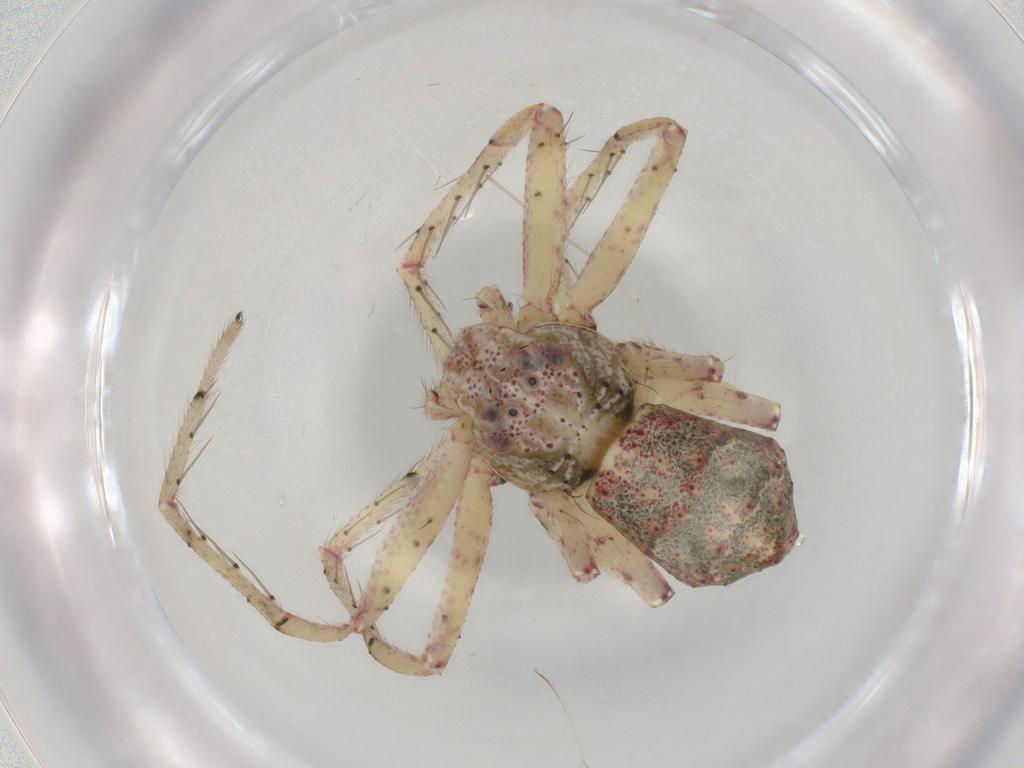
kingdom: Animalia
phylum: Arthropoda
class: Arachnida
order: Araneae
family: Thomisidae
